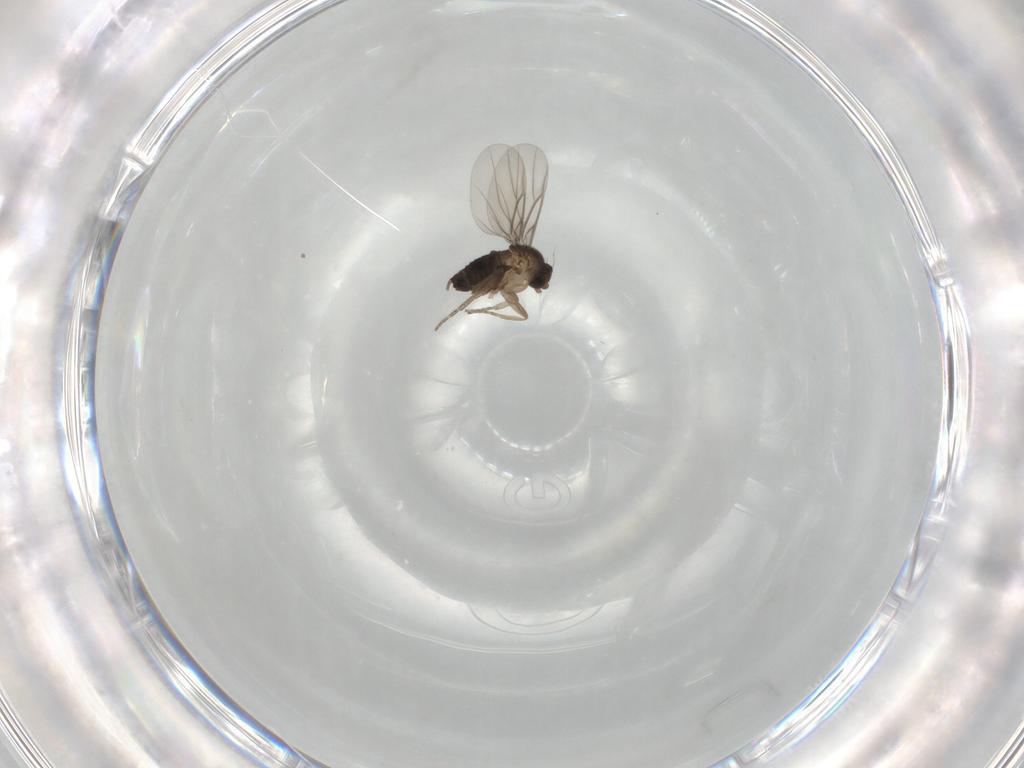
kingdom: Animalia
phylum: Arthropoda
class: Insecta
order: Diptera
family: Phoridae
